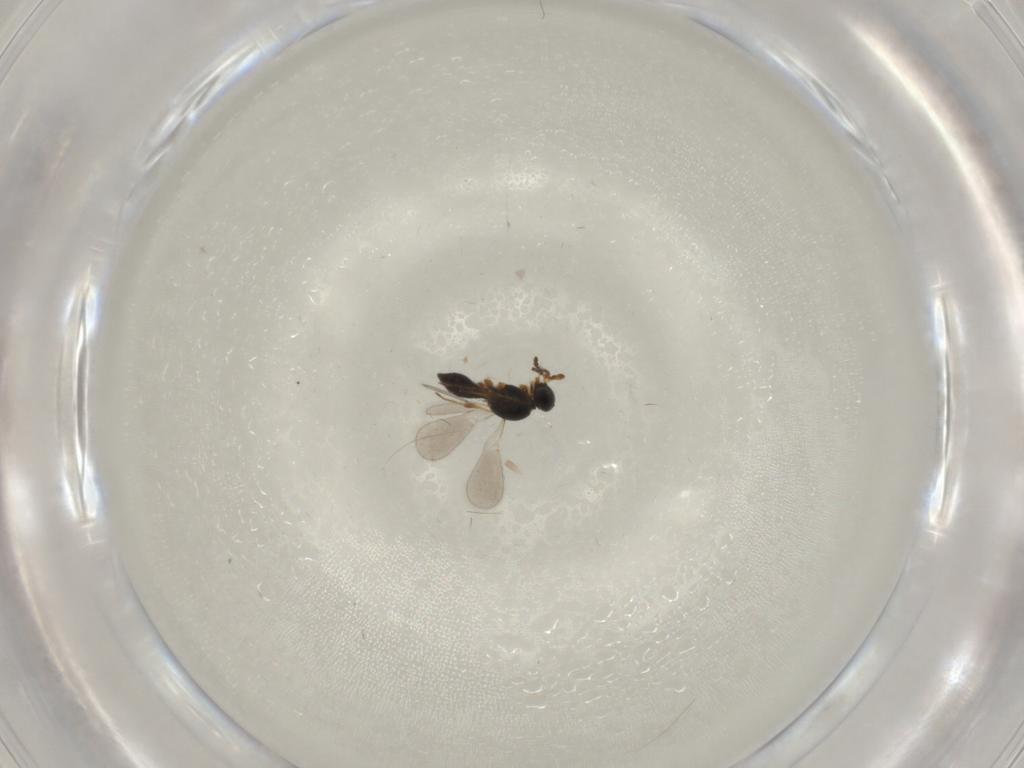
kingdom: Animalia
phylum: Arthropoda
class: Insecta
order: Hymenoptera
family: Platygastridae
